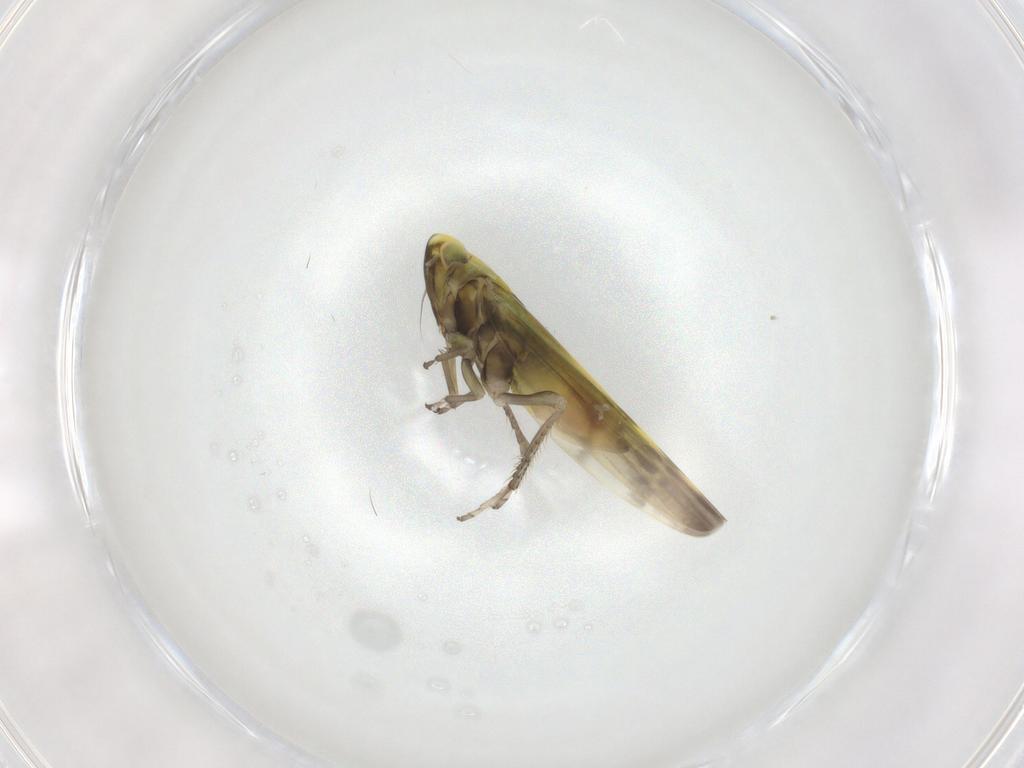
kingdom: Animalia
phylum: Arthropoda
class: Insecta
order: Hemiptera
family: Cicadellidae
